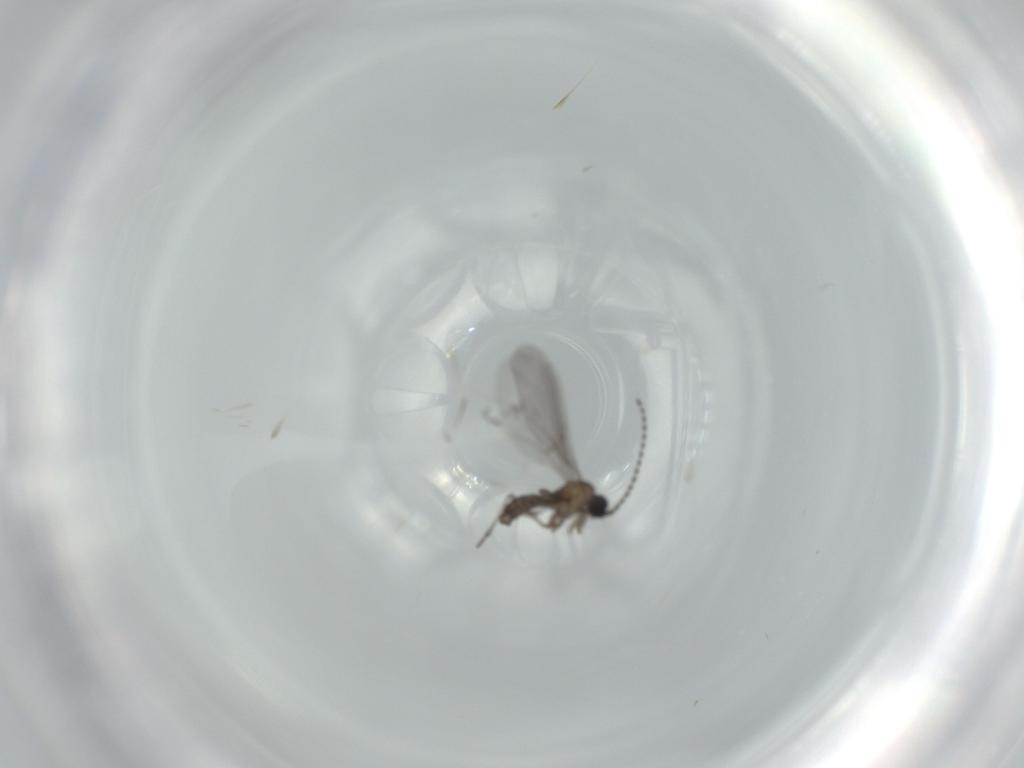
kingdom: Animalia
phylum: Arthropoda
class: Insecta
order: Diptera
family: Sciaridae
